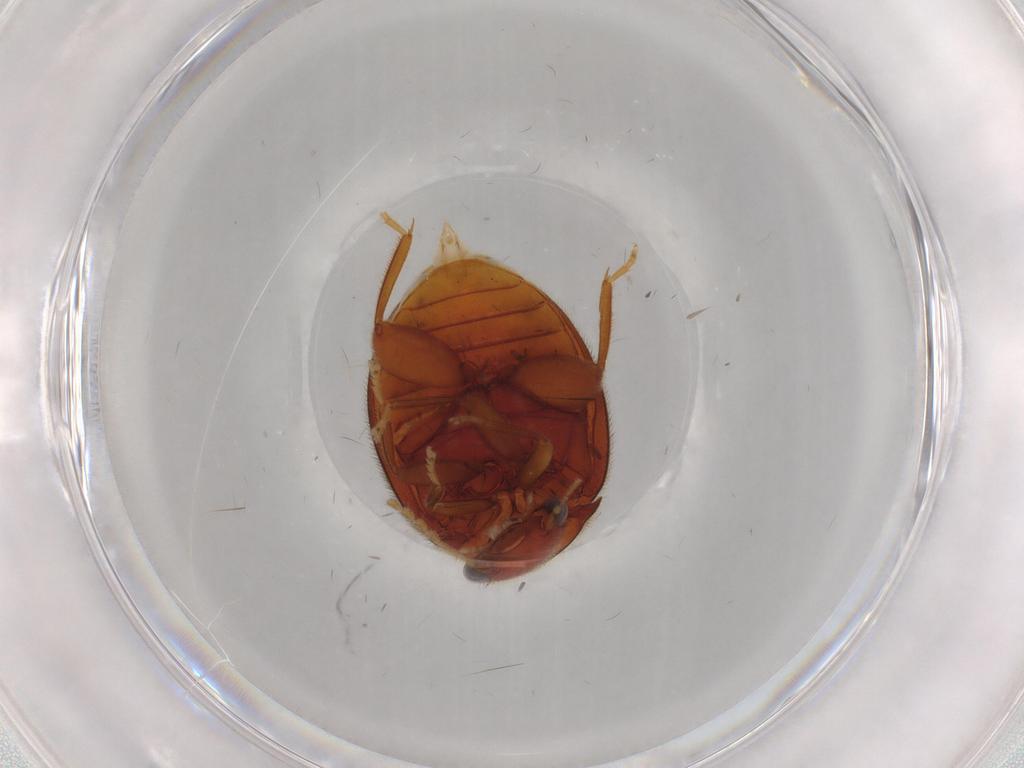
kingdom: Animalia
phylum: Arthropoda
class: Insecta
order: Coleoptera
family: Scirtidae
